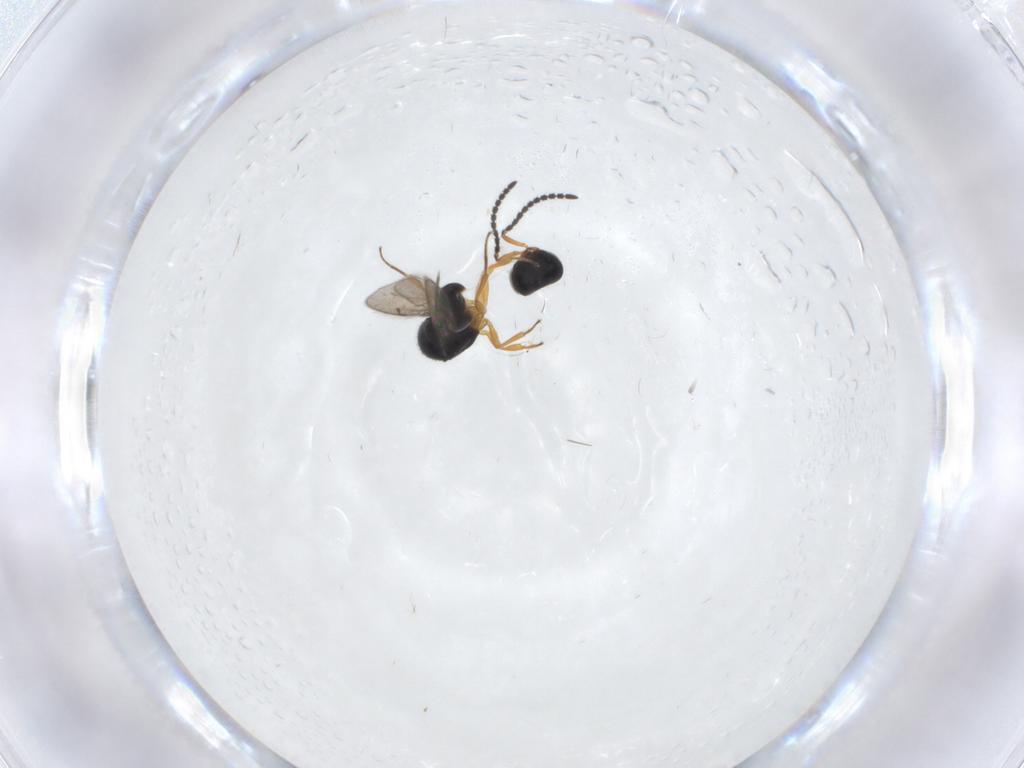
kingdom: Animalia
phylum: Arthropoda
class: Insecta
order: Hymenoptera
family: Scelionidae
